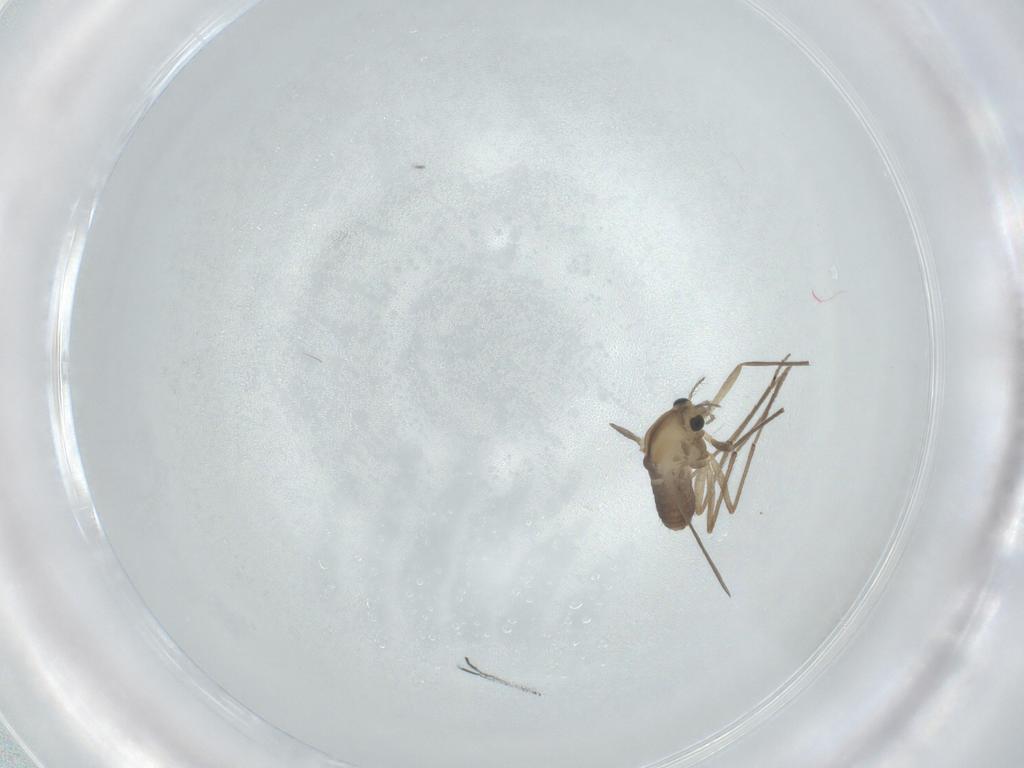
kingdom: Animalia
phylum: Arthropoda
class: Insecta
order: Diptera
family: Chironomidae
